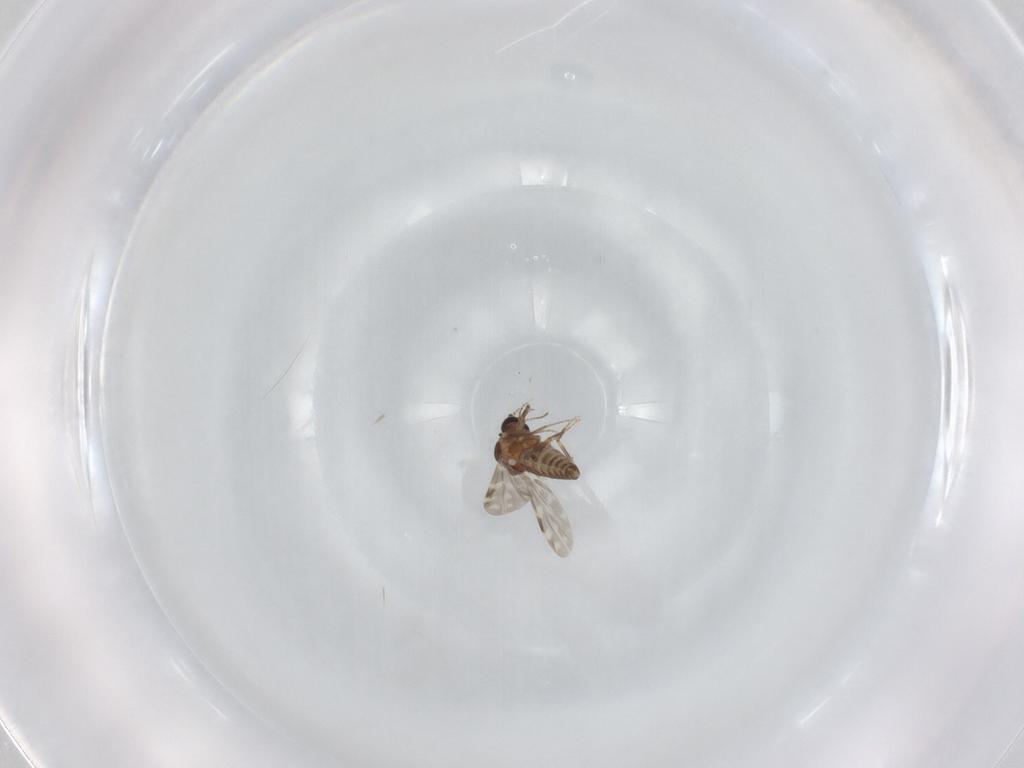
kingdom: Animalia
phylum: Arthropoda
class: Insecta
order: Diptera
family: Ceratopogonidae
